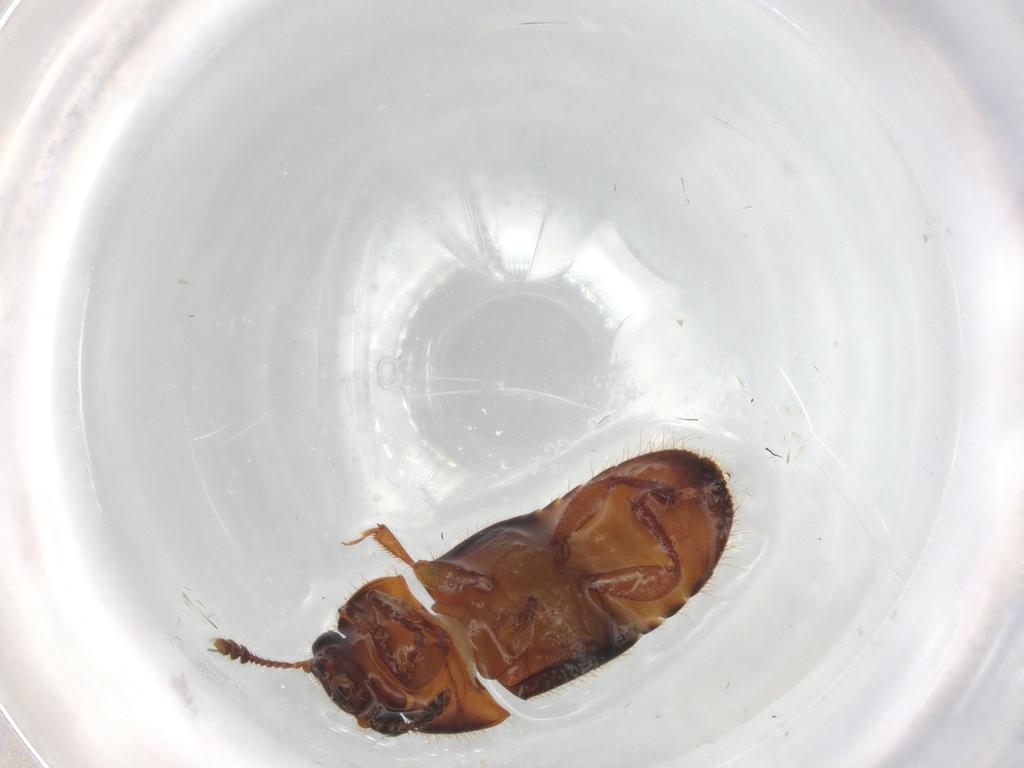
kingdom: Animalia
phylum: Arthropoda
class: Insecta
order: Coleoptera
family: Nitidulidae
